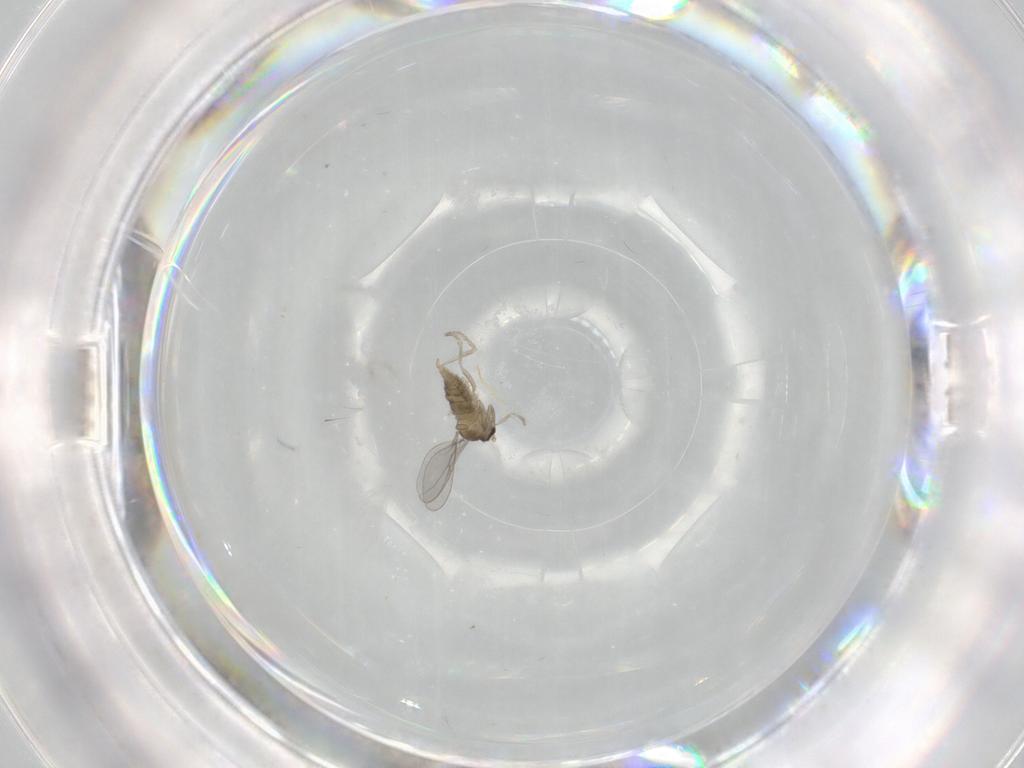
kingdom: Animalia
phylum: Arthropoda
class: Insecta
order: Diptera
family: Cecidomyiidae
